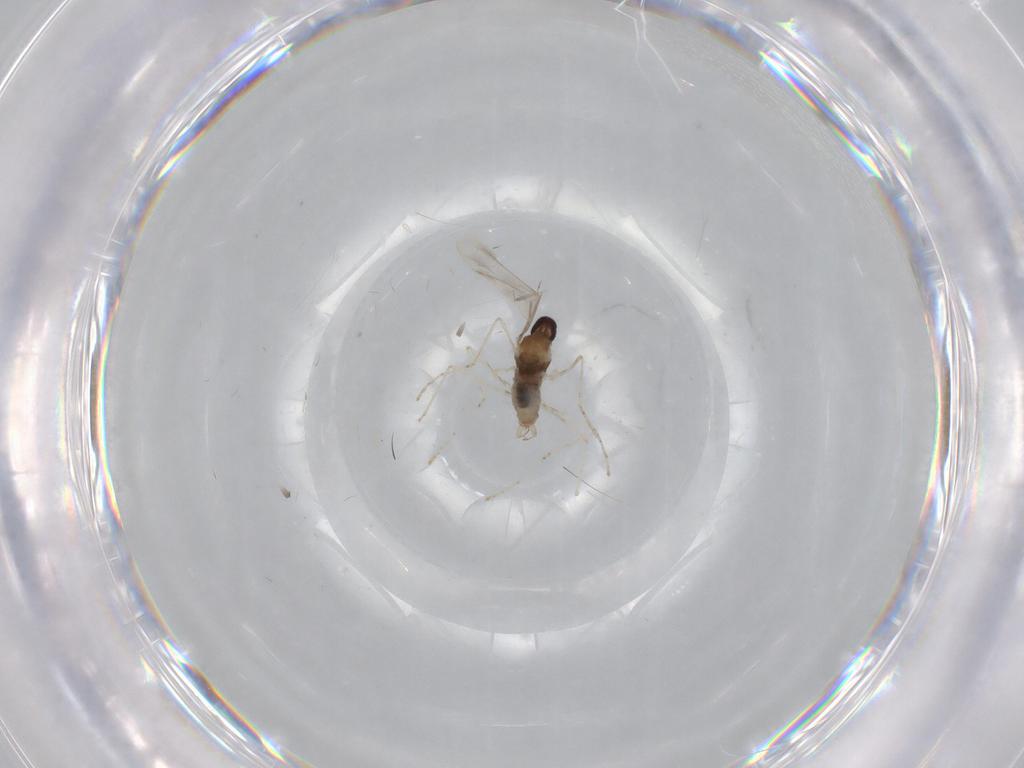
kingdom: Animalia
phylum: Arthropoda
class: Insecta
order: Diptera
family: Cecidomyiidae
